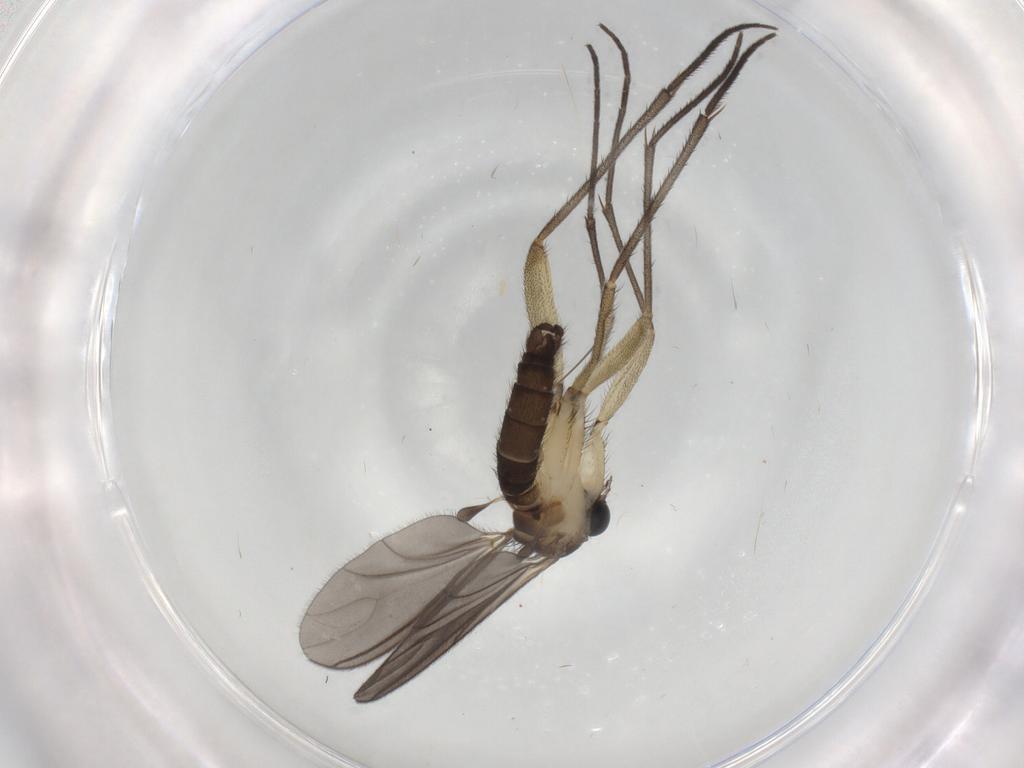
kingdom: Animalia
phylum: Arthropoda
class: Insecta
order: Diptera
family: Sciaridae
